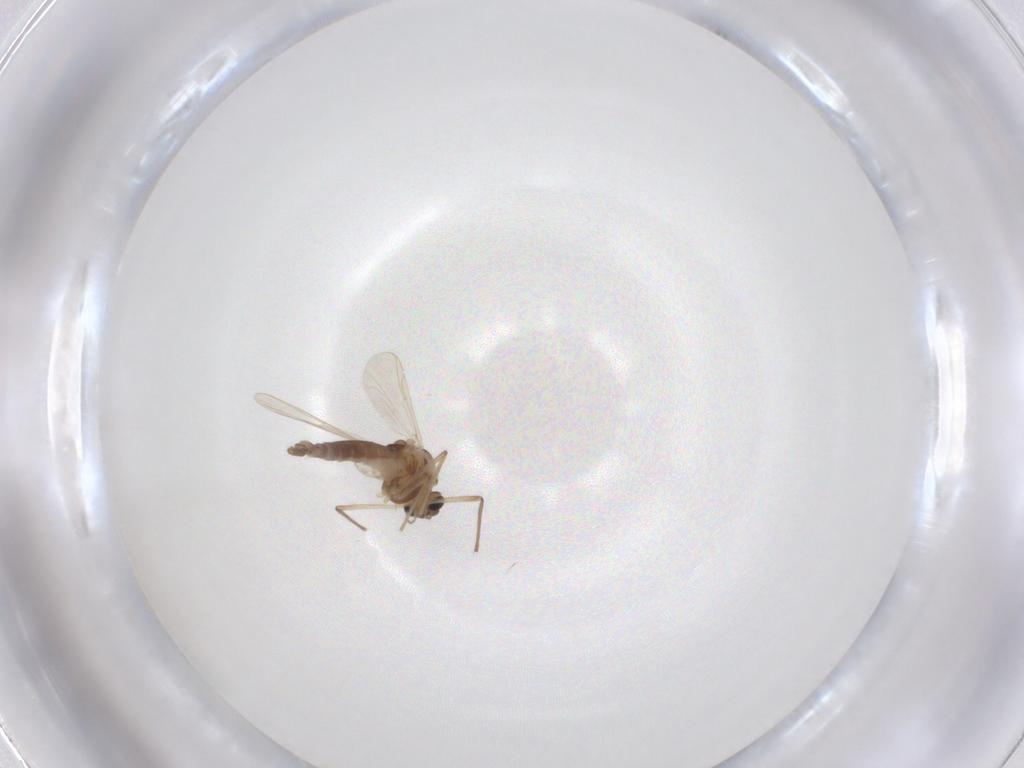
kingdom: Animalia
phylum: Arthropoda
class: Insecta
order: Diptera
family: Chironomidae
